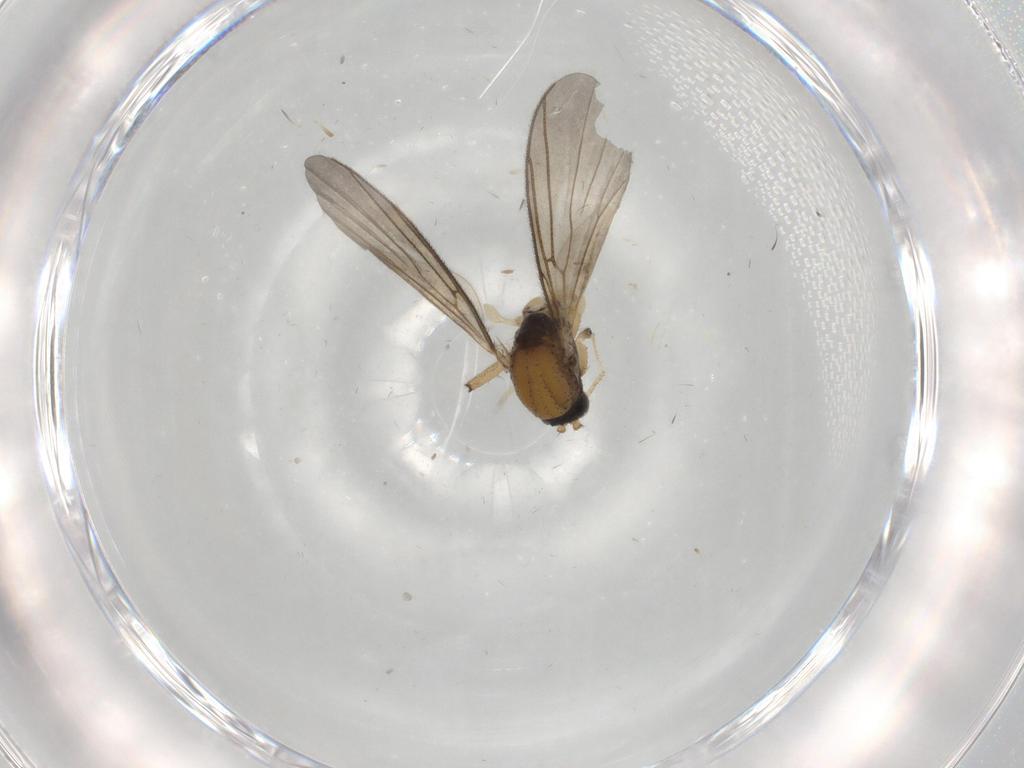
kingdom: Animalia
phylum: Arthropoda
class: Insecta
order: Diptera
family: Mycetophilidae
